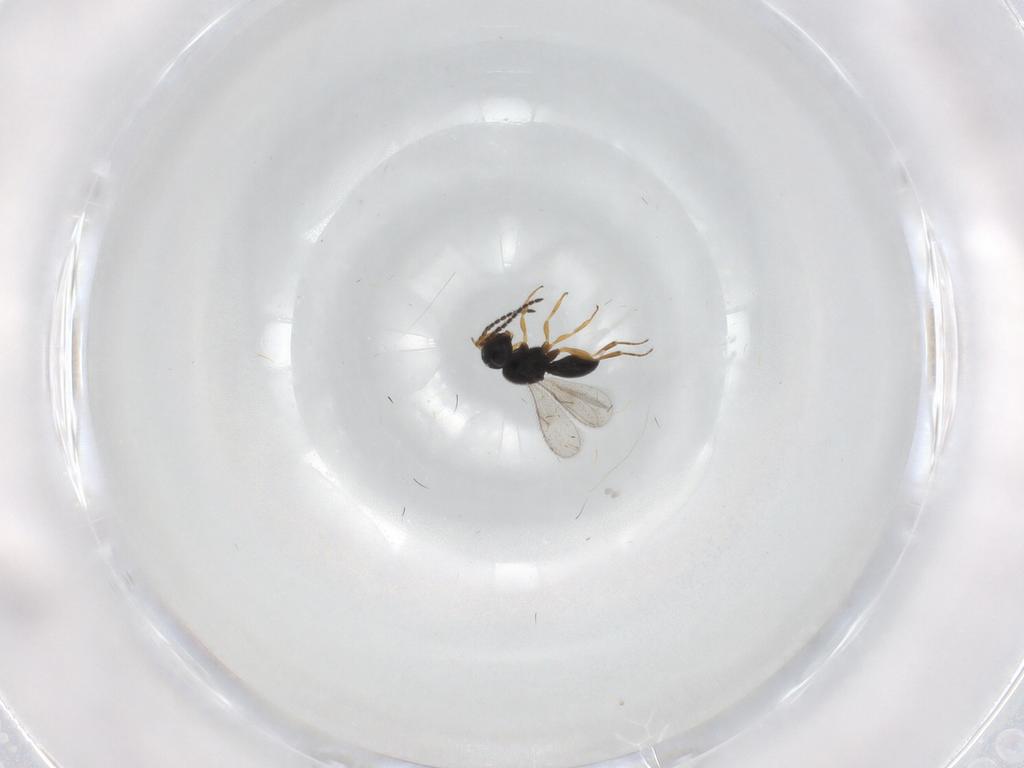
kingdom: Animalia
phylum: Arthropoda
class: Insecta
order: Hymenoptera
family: Scelionidae
